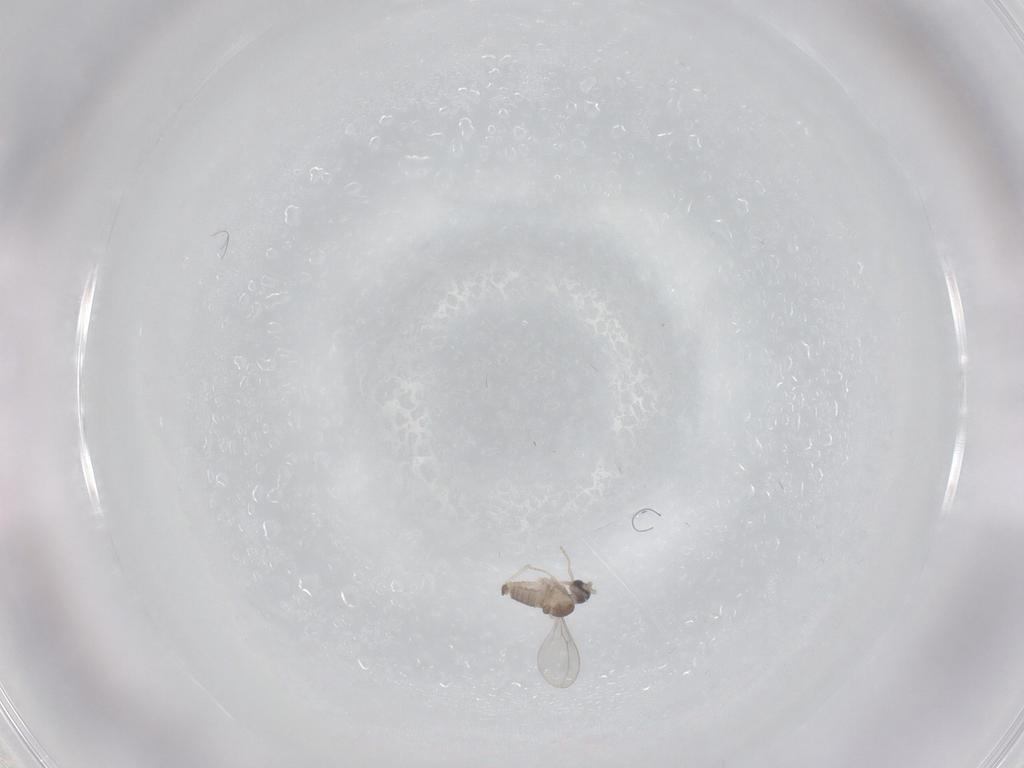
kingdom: Animalia
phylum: Arthropoda
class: Insecta
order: Diptera
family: Cecidomyiidae
